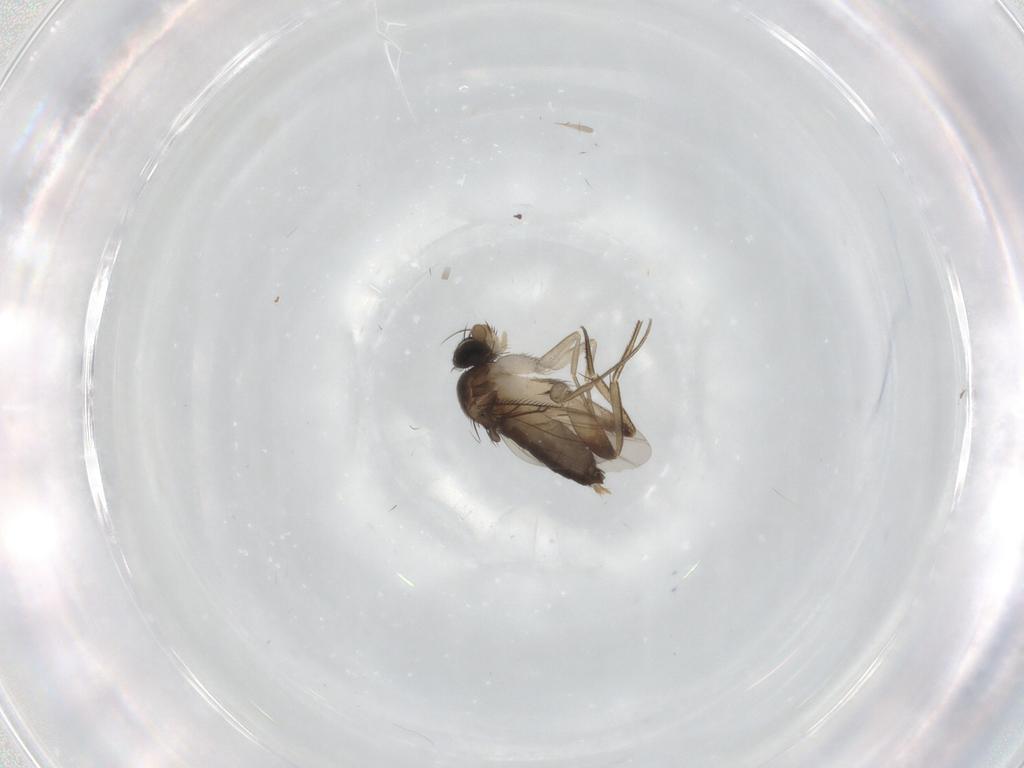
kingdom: Animalia
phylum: Arthropoda
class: Insecta
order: Diptera
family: Phoridae
